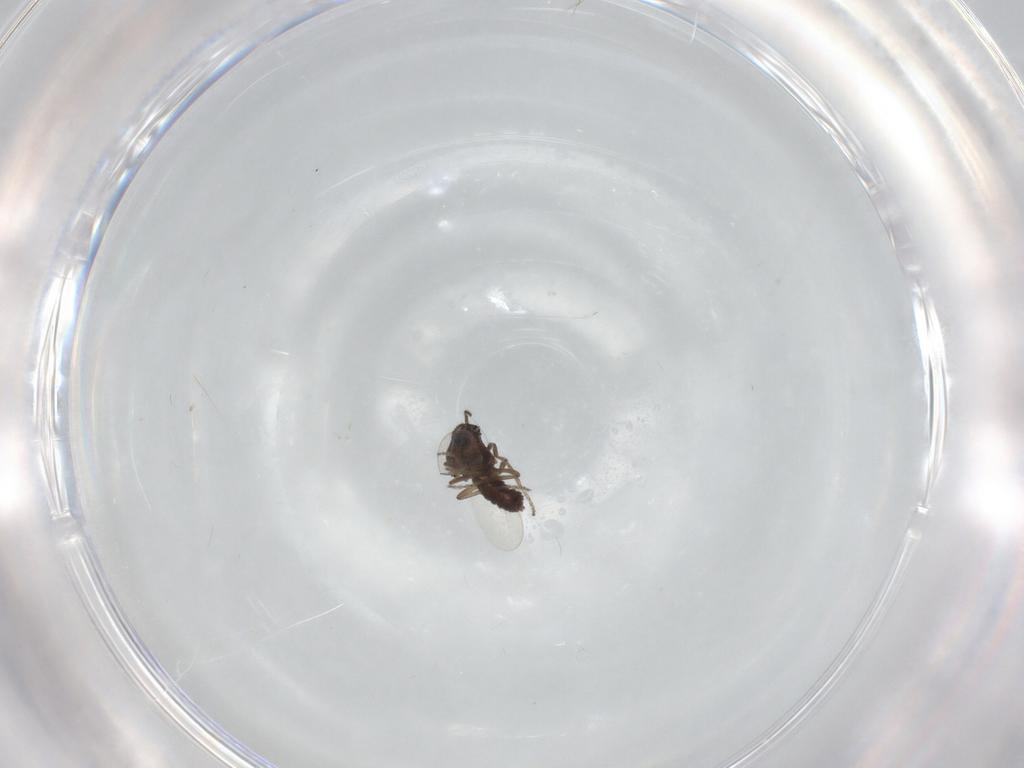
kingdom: Animalia
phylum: Arthropoda
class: Insecta
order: Diptera
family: Ceratopogonidae
